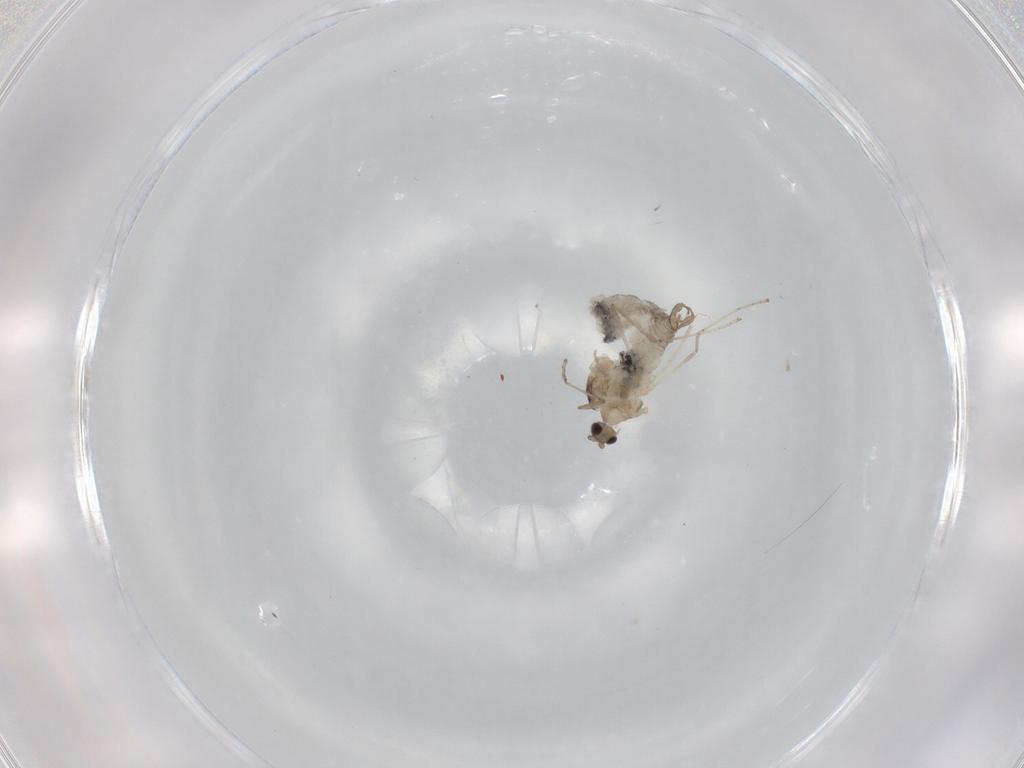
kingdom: Animalia
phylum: Arthropoda
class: Insecta
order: Diptera
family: Cecidomyiidae
